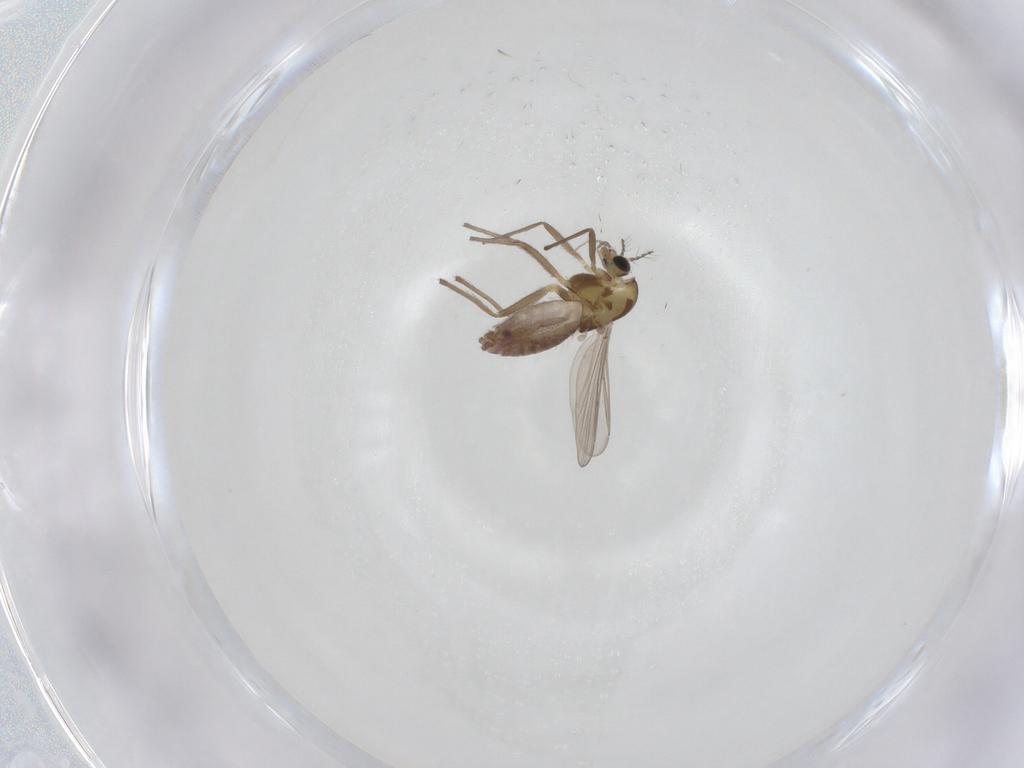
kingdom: Animalia
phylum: Arthropoda
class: Insecta
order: Diptera
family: Chironomidae
